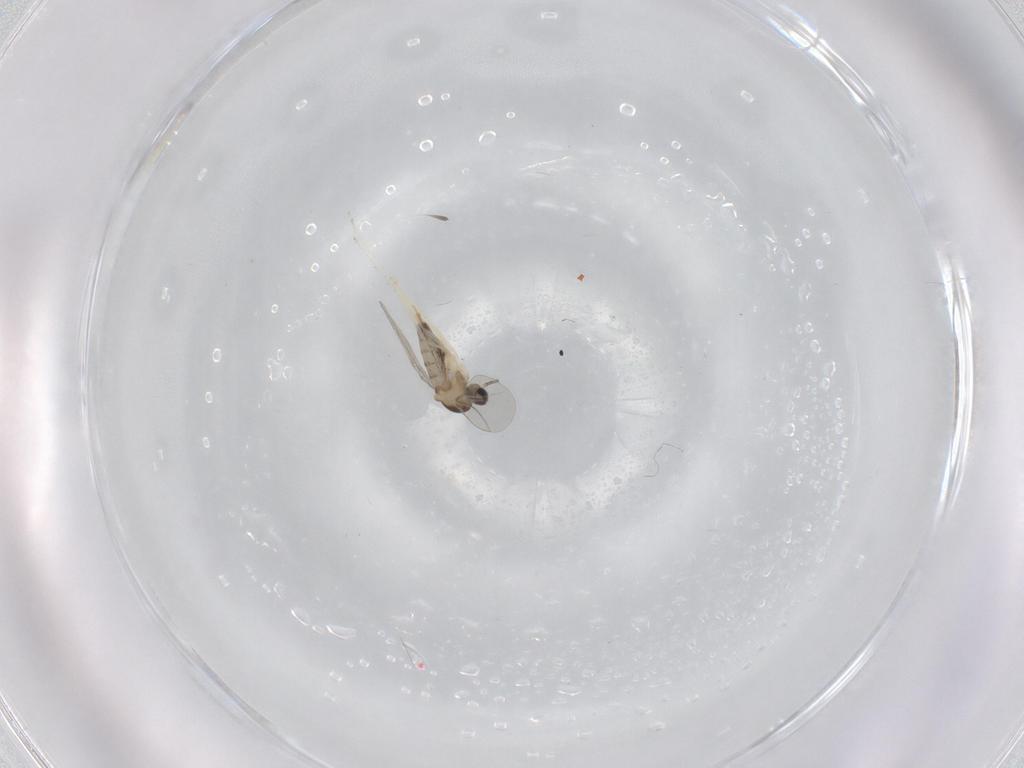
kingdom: Animalia
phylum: Arthropoda
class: Insecta
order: Diptera
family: Cecidomyiidae
